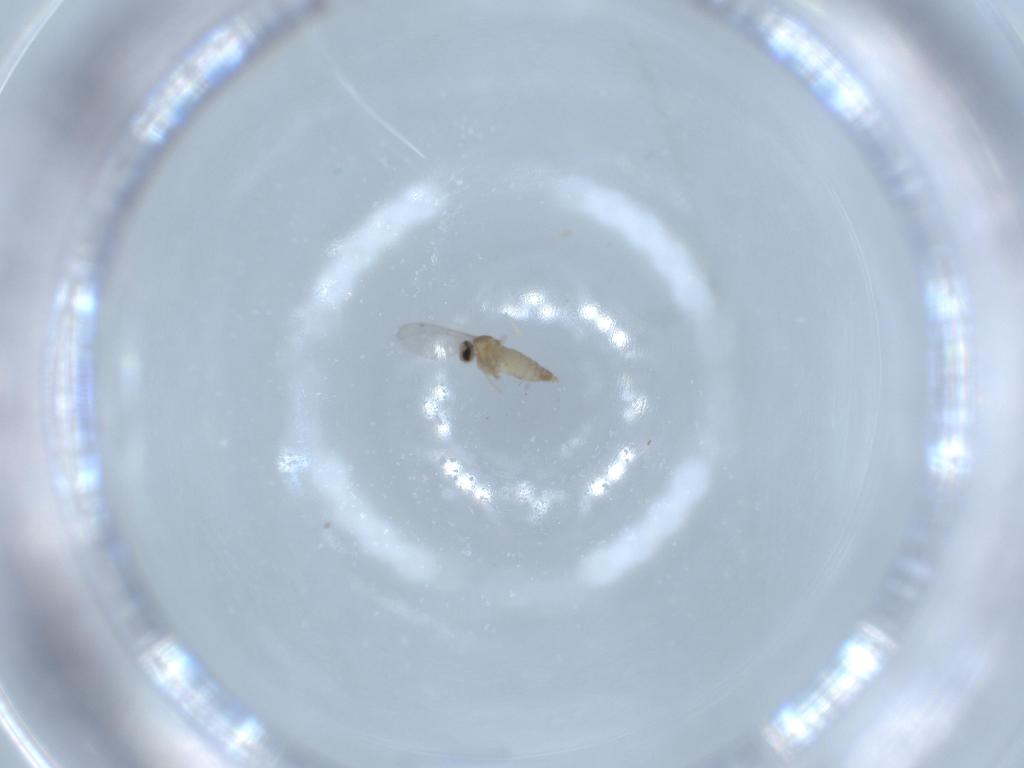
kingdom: Animalia
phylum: Arthropoda
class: Insecta
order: Diptera
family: Cecidomyiidae
